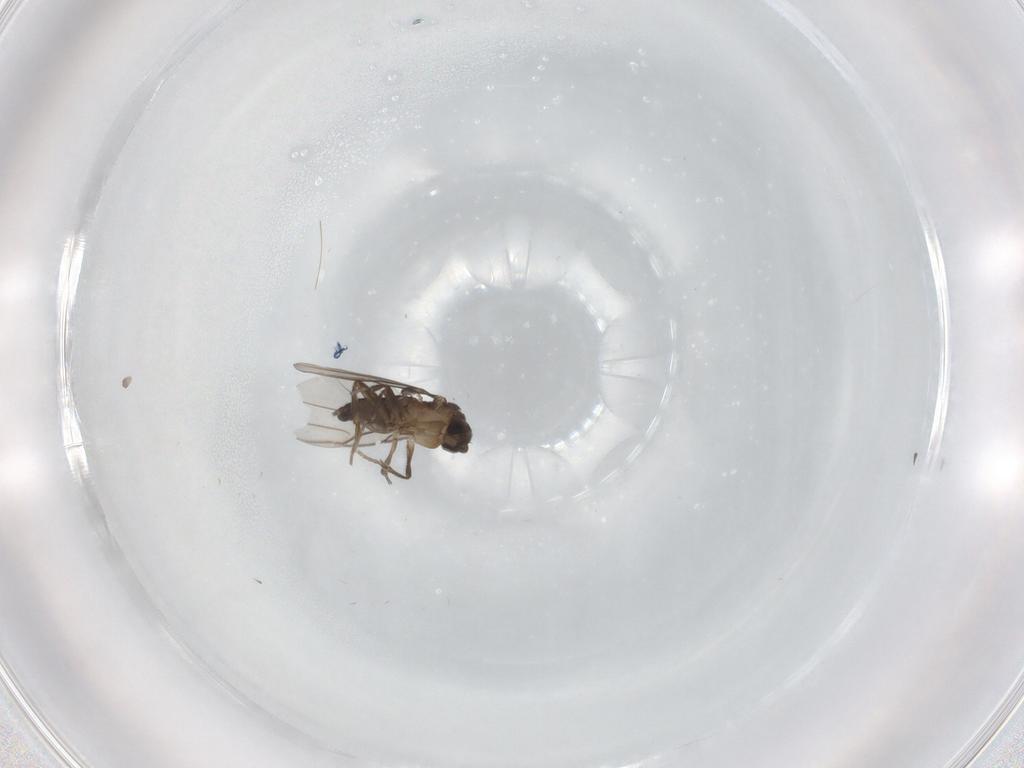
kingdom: Animalia
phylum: Arthropoda
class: Insecta
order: Diptera
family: Phoridae
